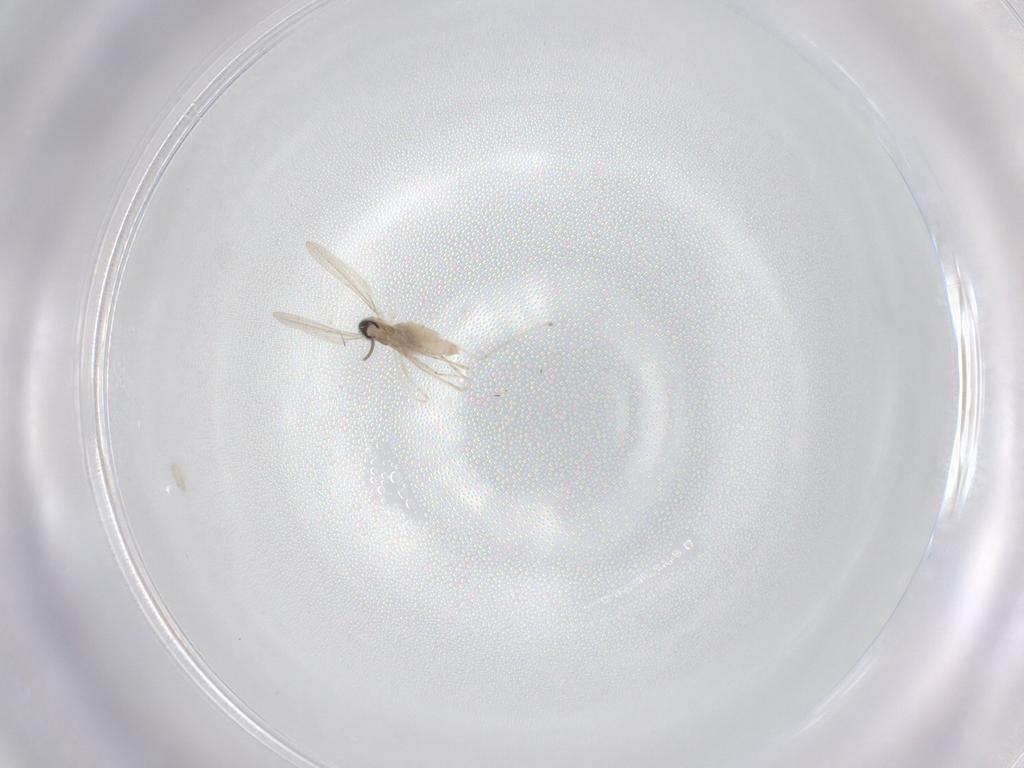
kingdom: Animalia
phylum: Arthropoda
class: Insecta
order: Diptera
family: Cecidomyiidae
